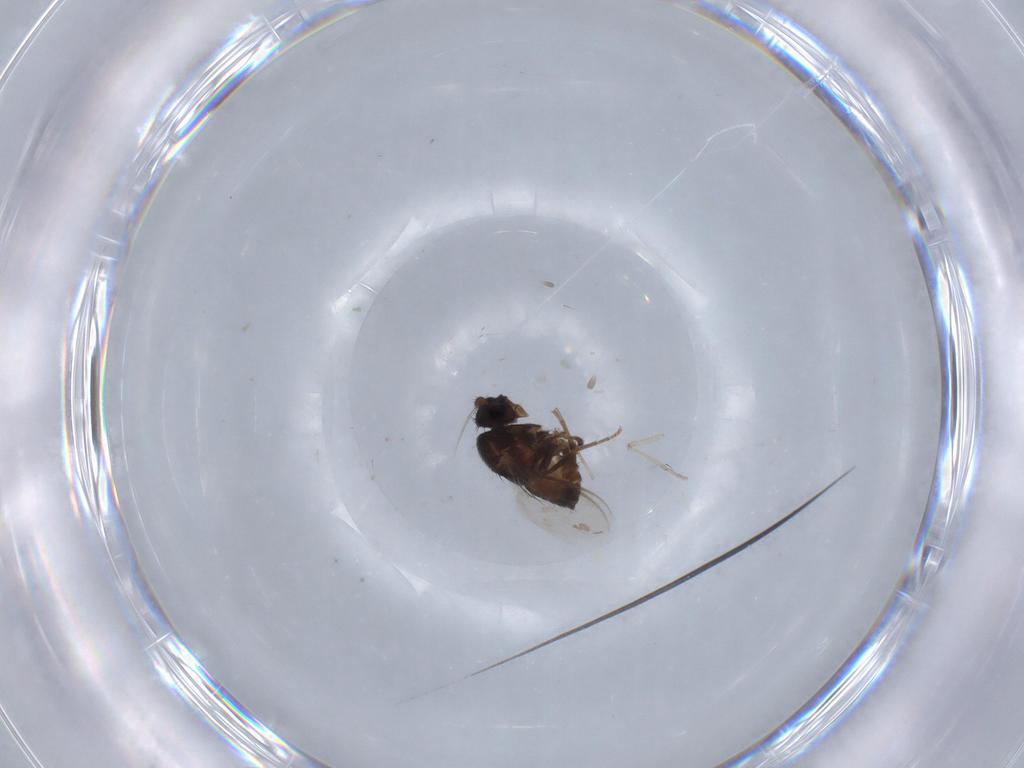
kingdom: Animalia
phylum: Arthropoda
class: Insecta
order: Diptera
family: Sphaeroceridae
